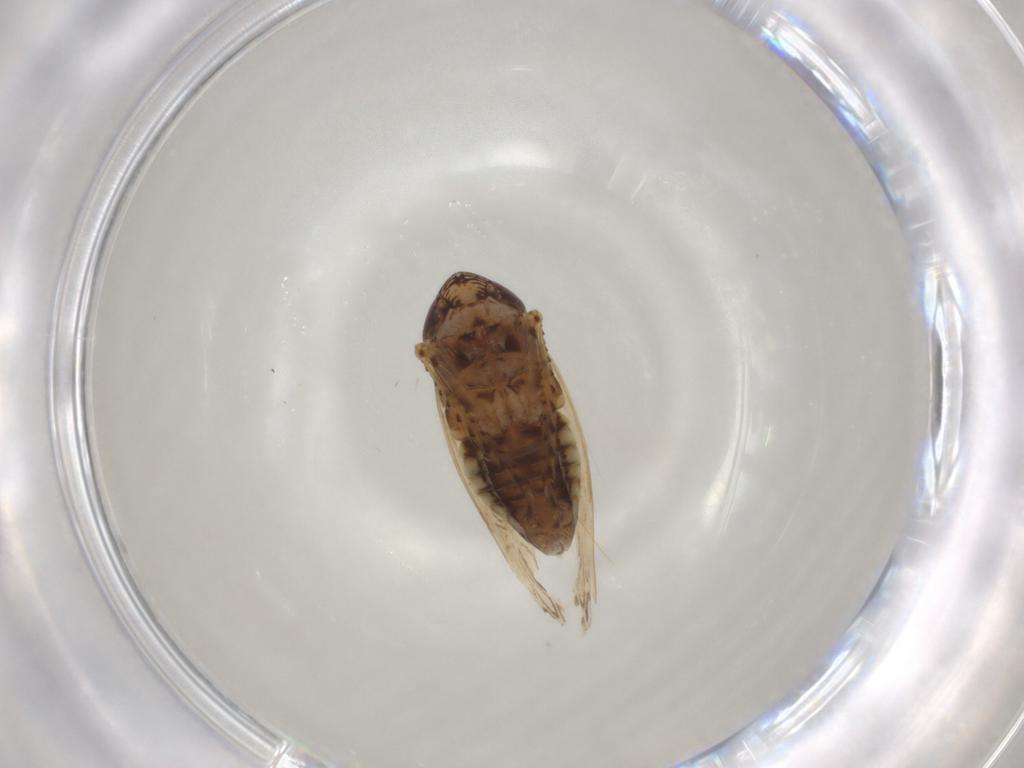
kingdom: Animalia
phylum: Arthropoda
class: Insecta
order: Hemiptera
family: Cicadellidae
